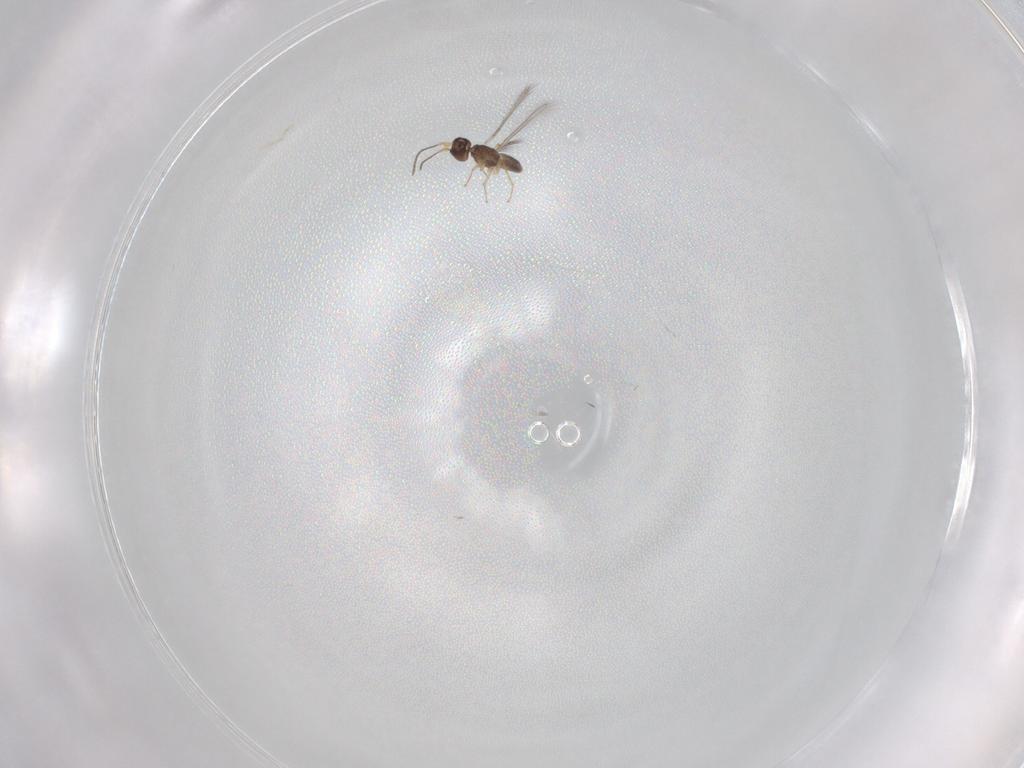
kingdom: Animalia
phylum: Arthropoda
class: Insecta
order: Hymenoptera
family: Mymaridae
